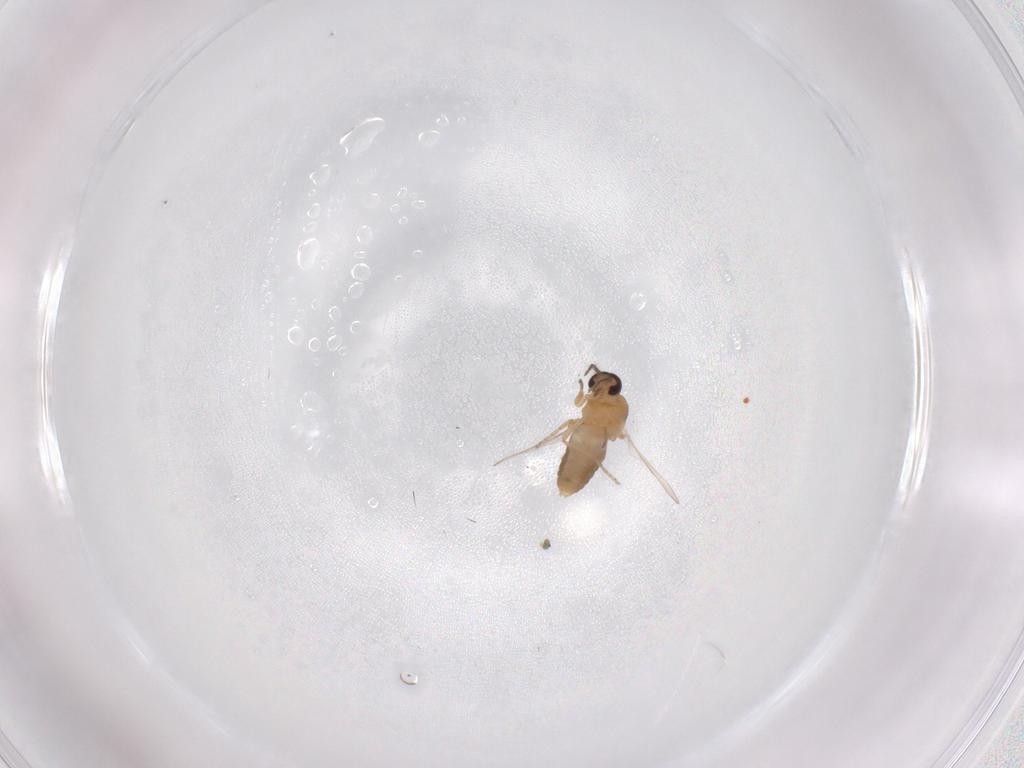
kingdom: Animalia
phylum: Arthropoda
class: Insecta
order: Diptera
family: Ceratopogonidae
